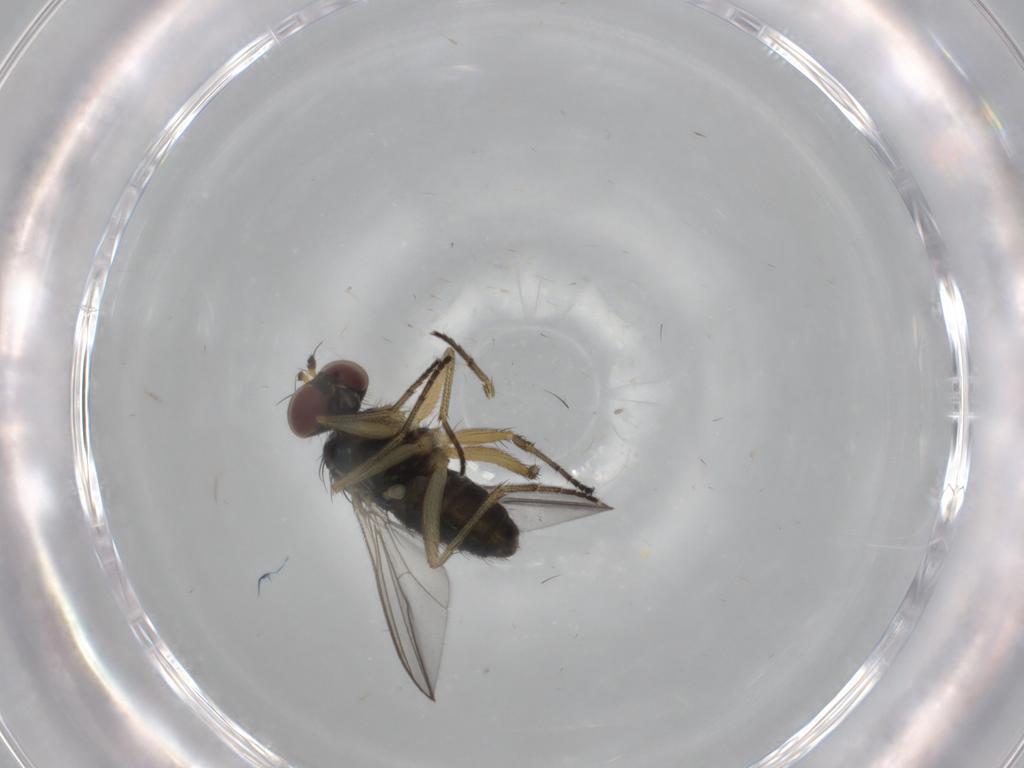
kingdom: Animalia
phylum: Arthropoda
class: Insecta
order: Diptera
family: Dolichopodidae
